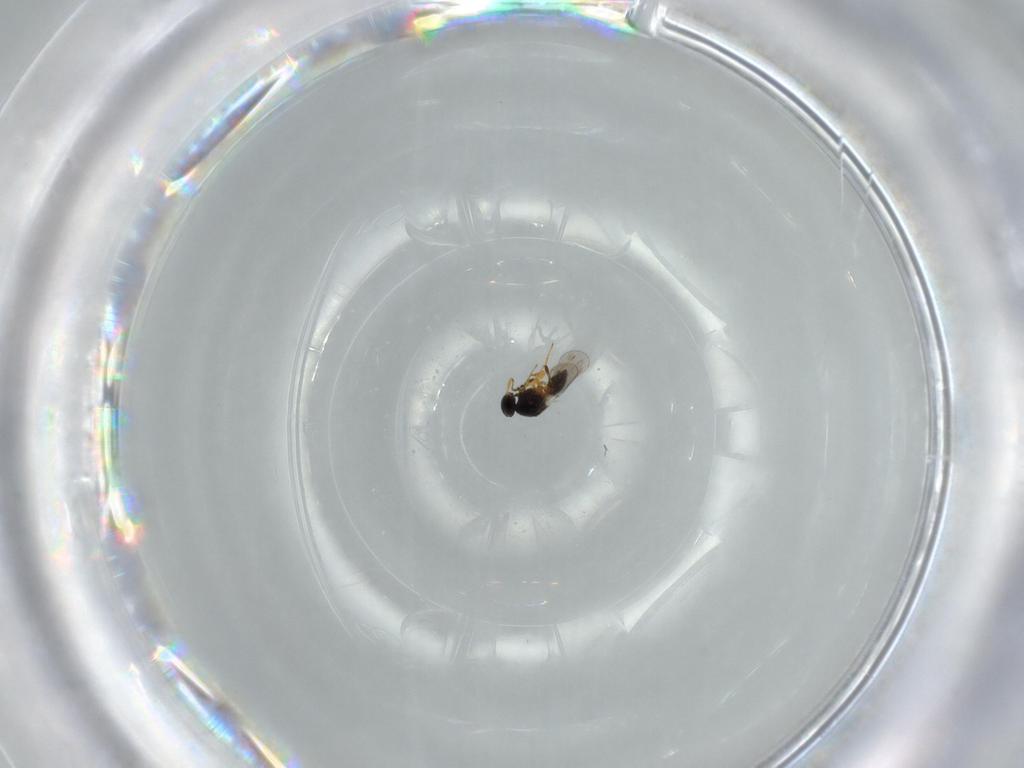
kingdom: Animalia
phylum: Arthropoda
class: Insecta
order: Hymenoptera
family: Platygastridae
